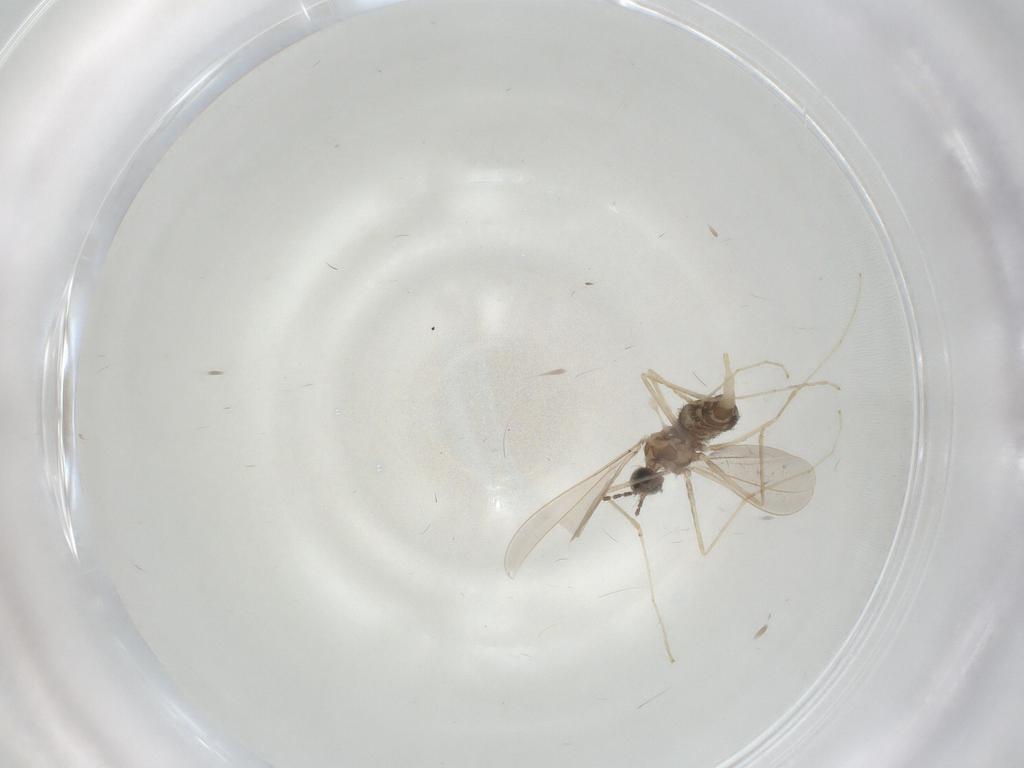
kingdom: Animalia
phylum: Arthropoda
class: Insecta
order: Diptera
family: Cecidomyiidae
